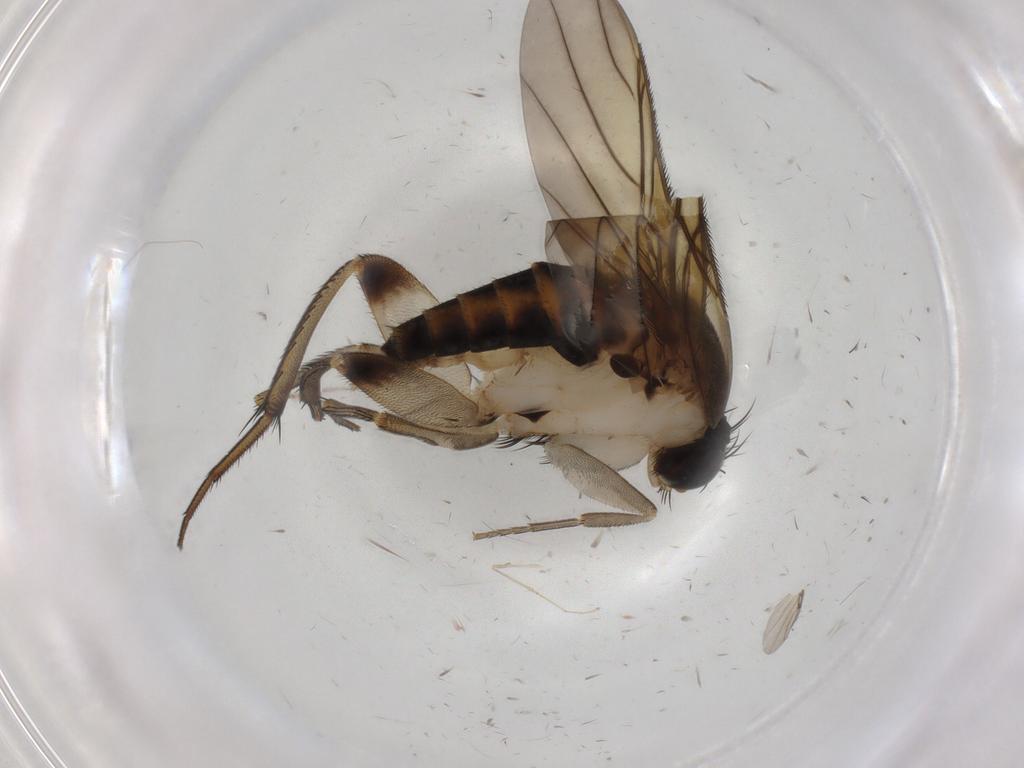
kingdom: Animalia
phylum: Arthropoda
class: Insecta
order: Diptera
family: Phoridae
